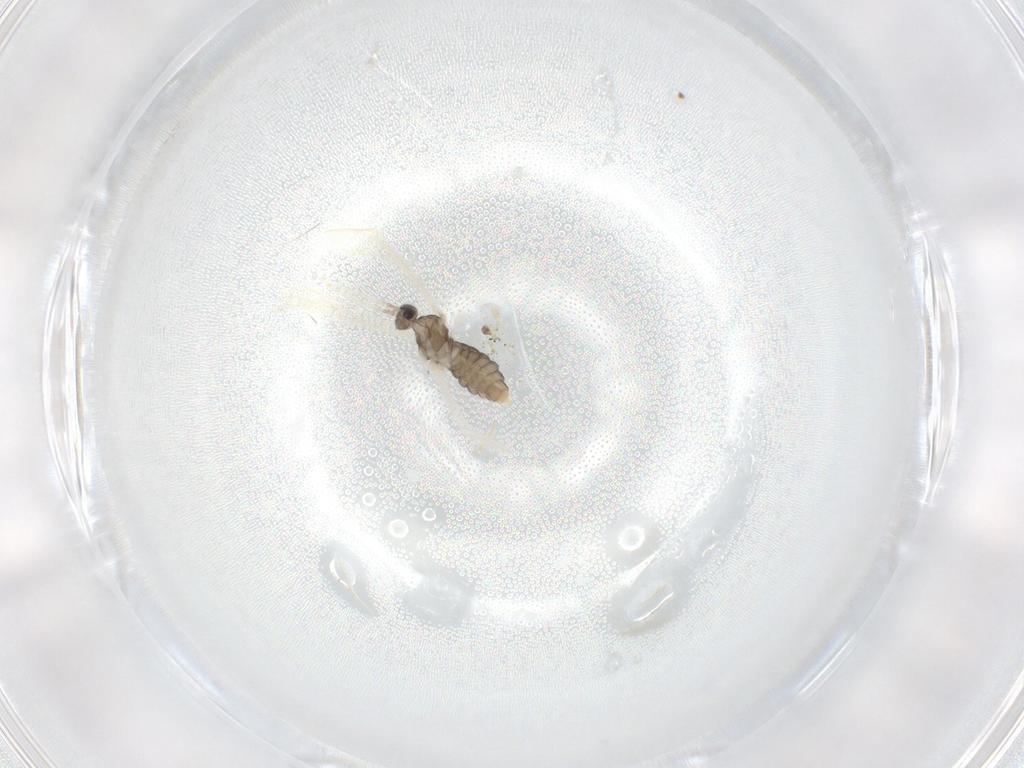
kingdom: Animalia
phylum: Arthropoda
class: Insecta
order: Diptera
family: Cecidomyiidae
